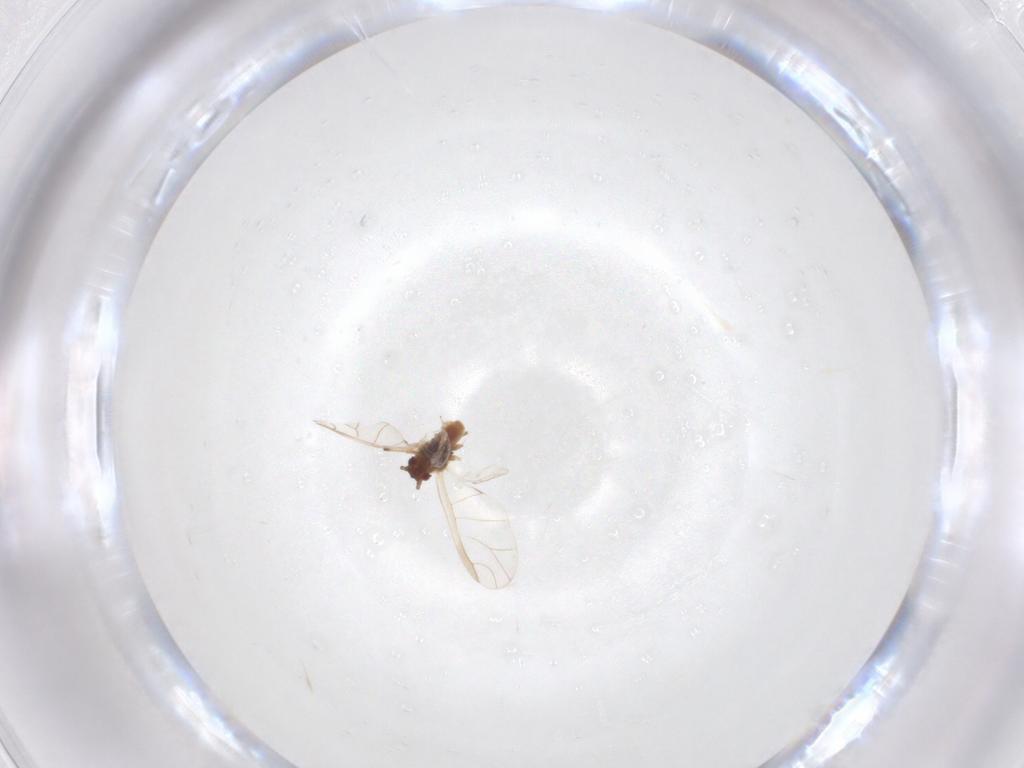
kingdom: Animalia
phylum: Arthropoda
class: Insecta
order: Hemiptera
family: Aphididae
